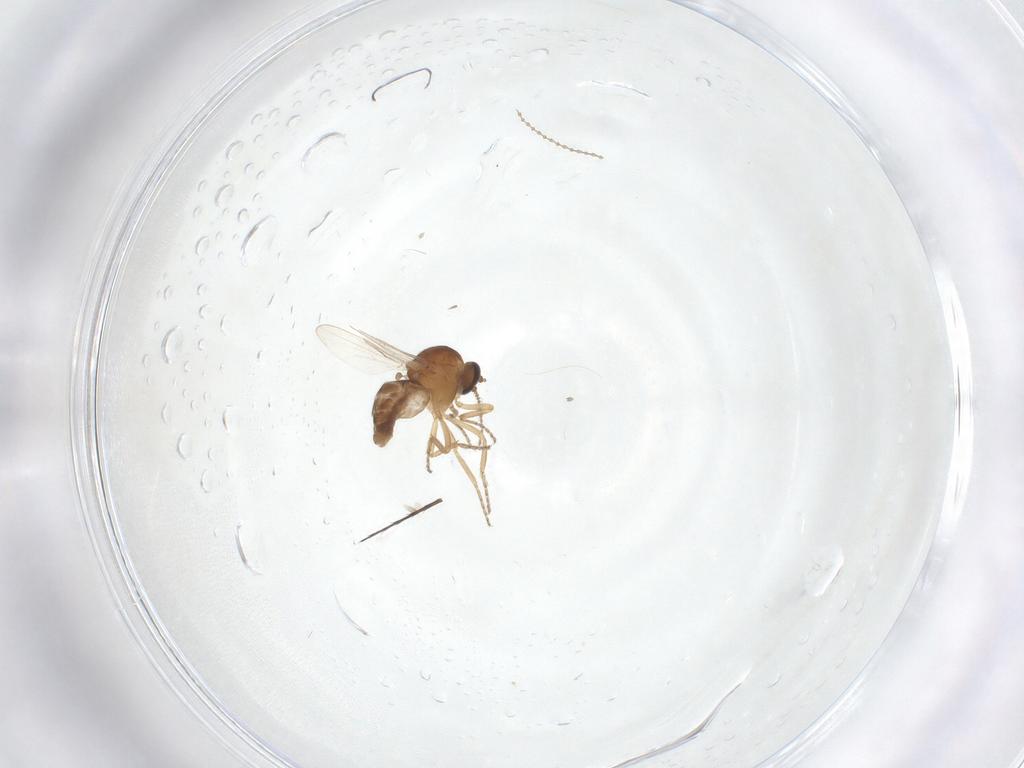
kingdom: Animalia
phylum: Arthropoda
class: Insecta
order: Diptera
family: Ceratopogonidae
